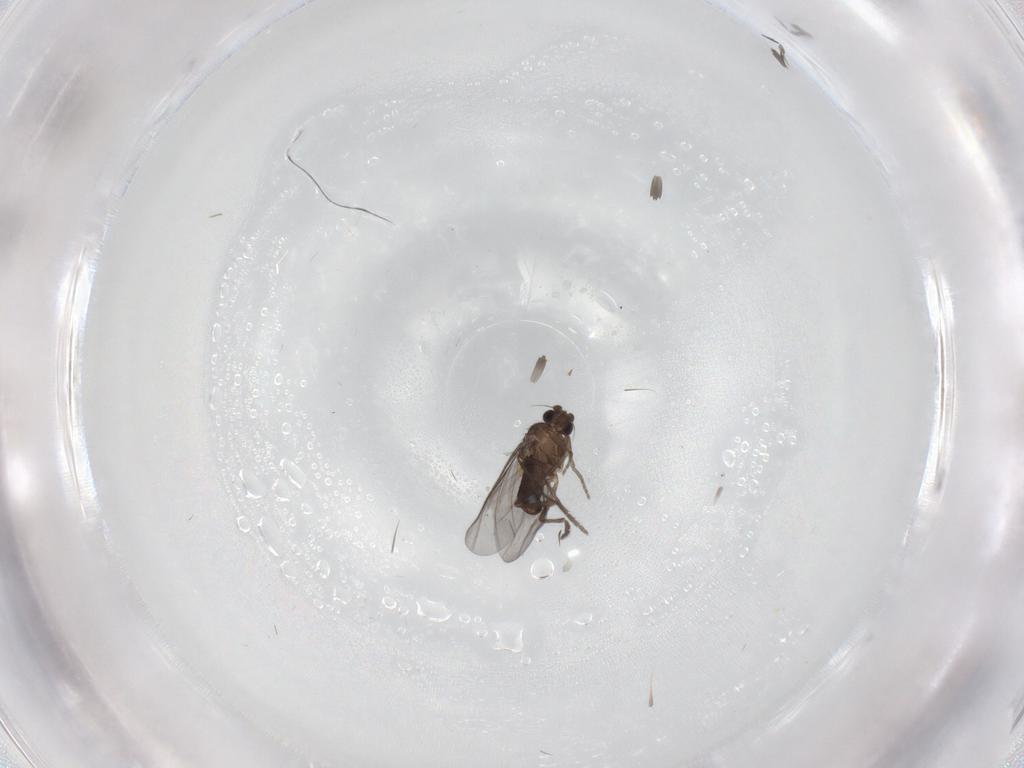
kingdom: Animalia
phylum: Arthropoda
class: Insecta
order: Diptera
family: Phoridae
